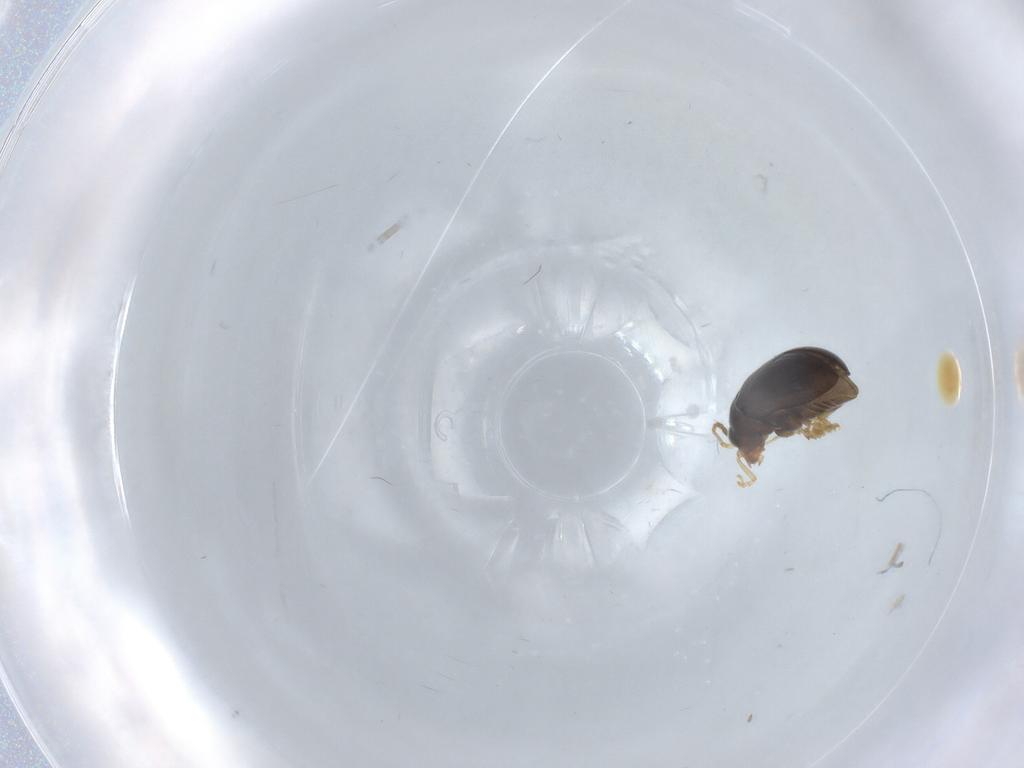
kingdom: Animalia
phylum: Arthropoda
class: Insecta
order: Coleoptera
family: Chrysomelidae
